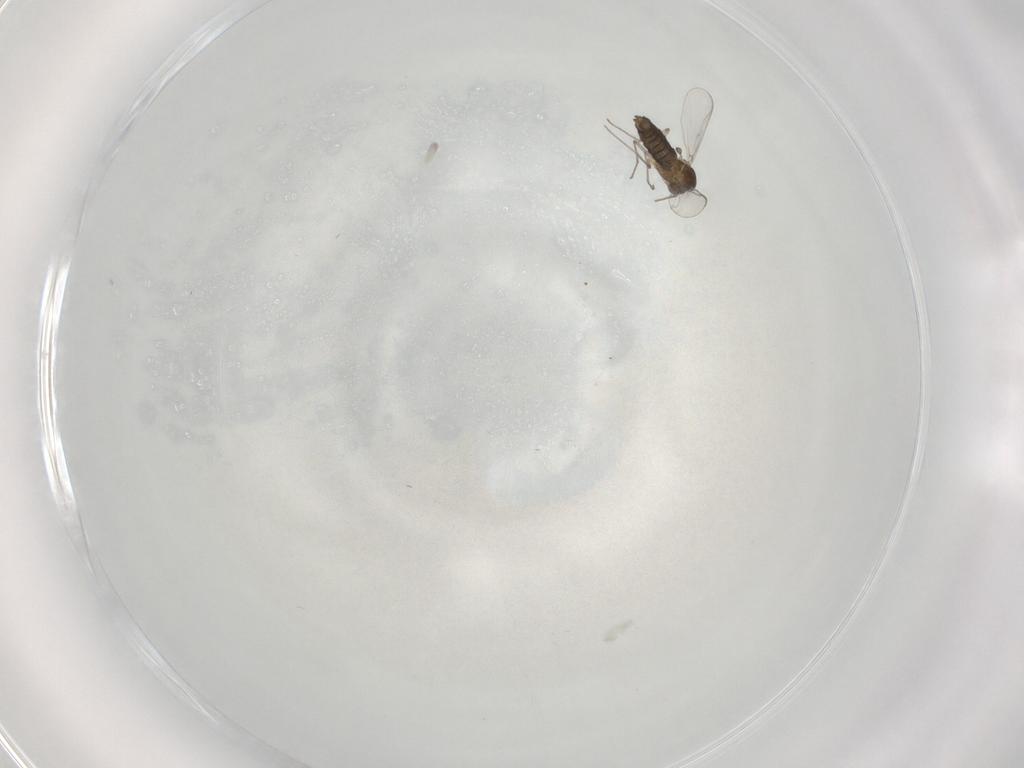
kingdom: Animalia
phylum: Arthropoda
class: Insecta
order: Diptera
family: Chironomidae
